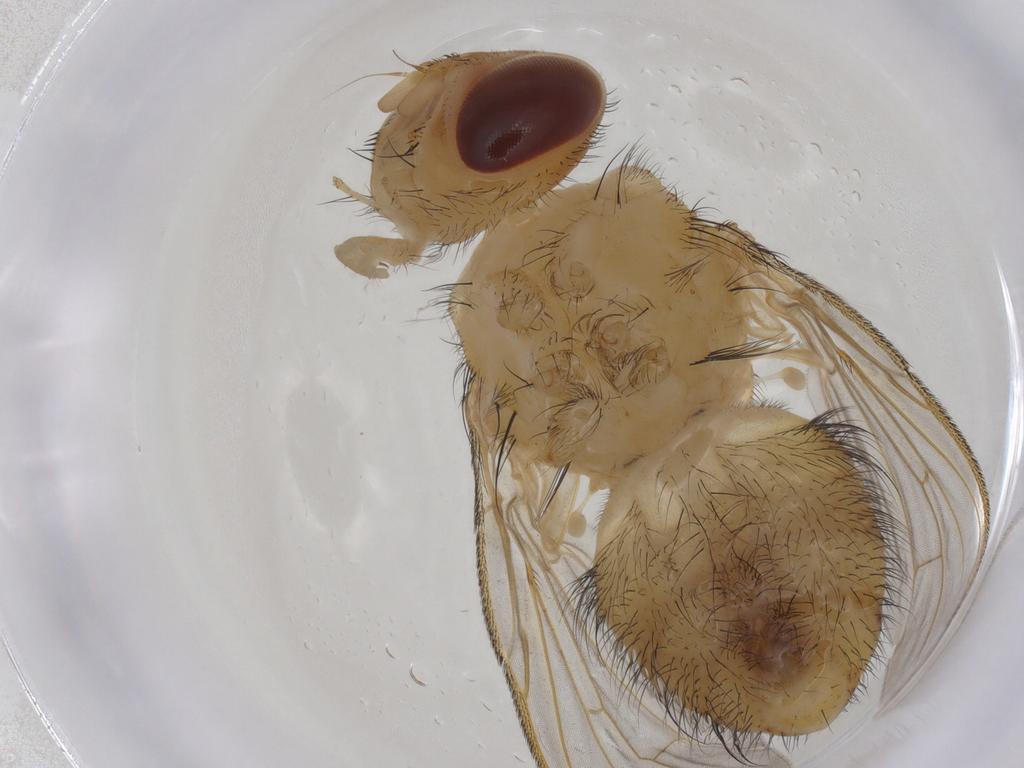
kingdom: Animalia
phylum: Arthropoda
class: Insecta
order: Diptera
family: Tachinidae
